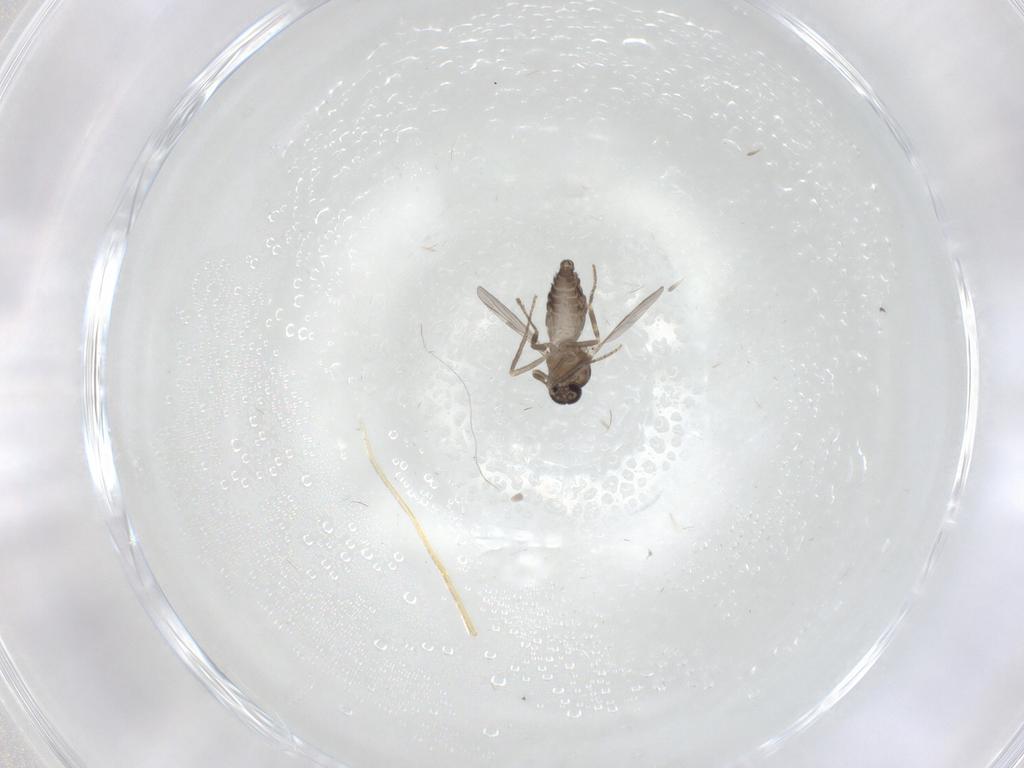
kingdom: Animalia
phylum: Arthropoda
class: Insecta
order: Diptera
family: Ceratopogonidae
